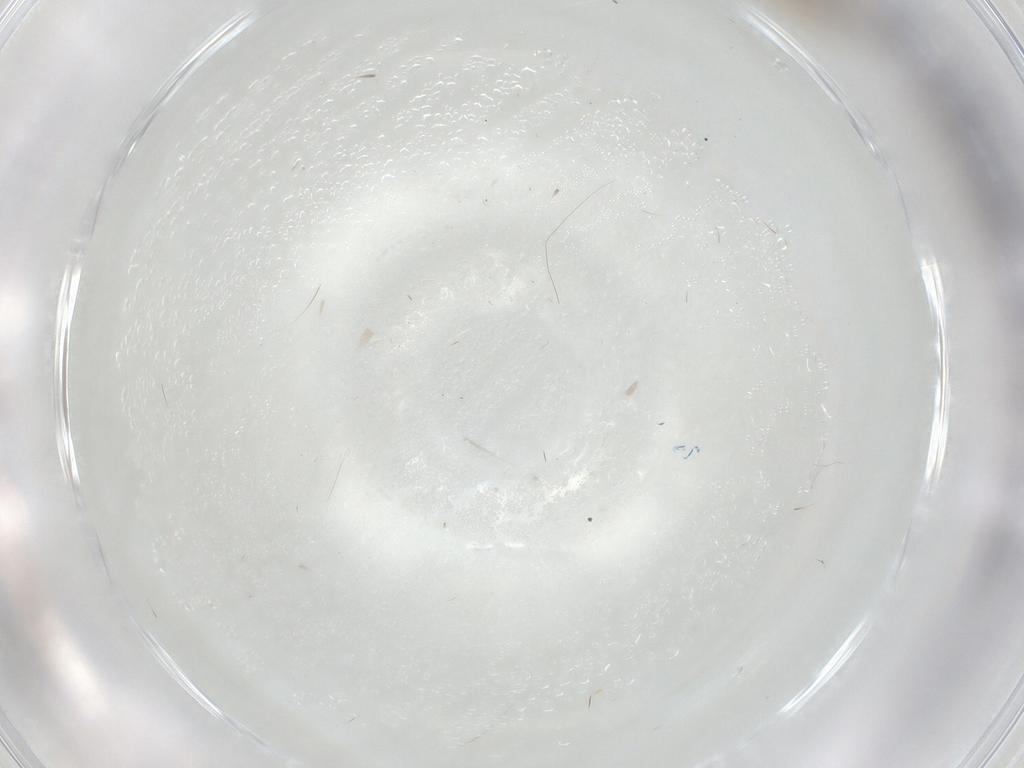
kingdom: Animalia
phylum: Arthropoda
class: Insecta
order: Diptera
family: Phoridae
